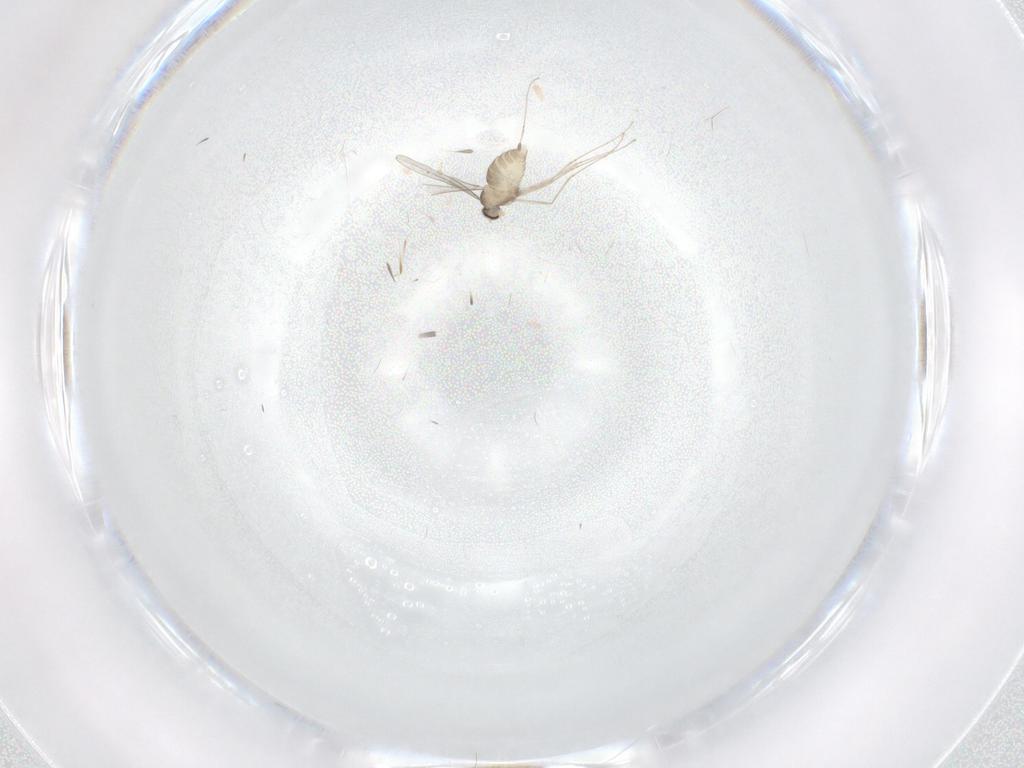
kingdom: Animalia
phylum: Arthropoda
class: Insecta
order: Diptera
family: Cecidomyiidae
